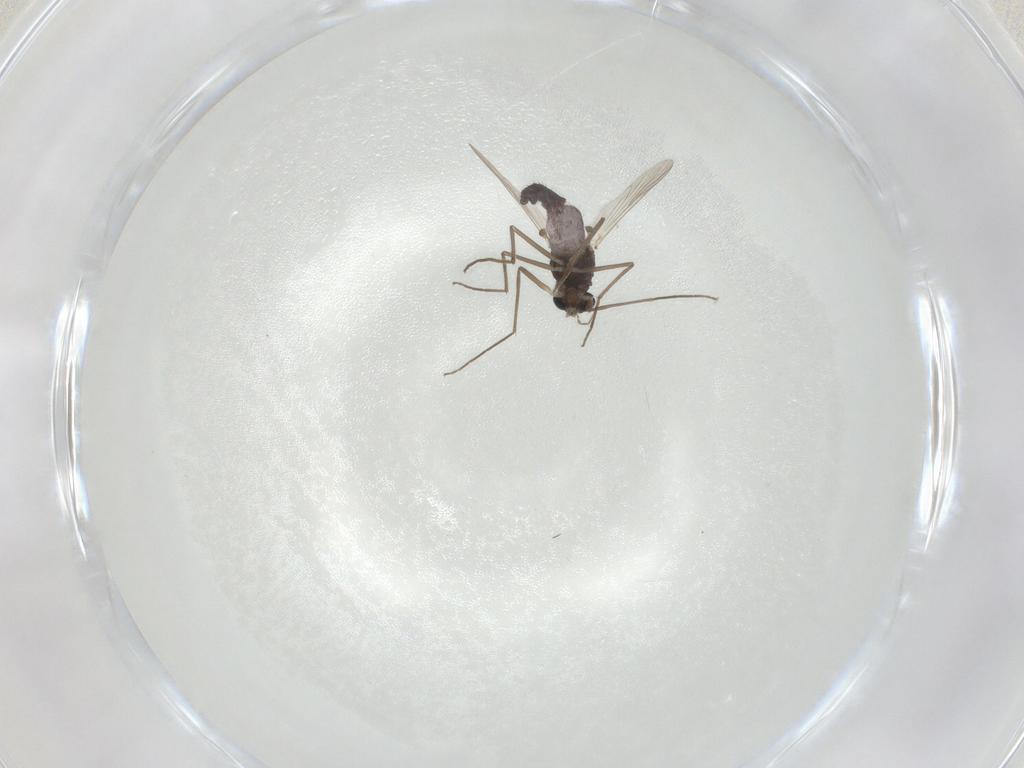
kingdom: Animalia
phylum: Arthropoda
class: Insecta
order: Diptera
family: Chironomidae
